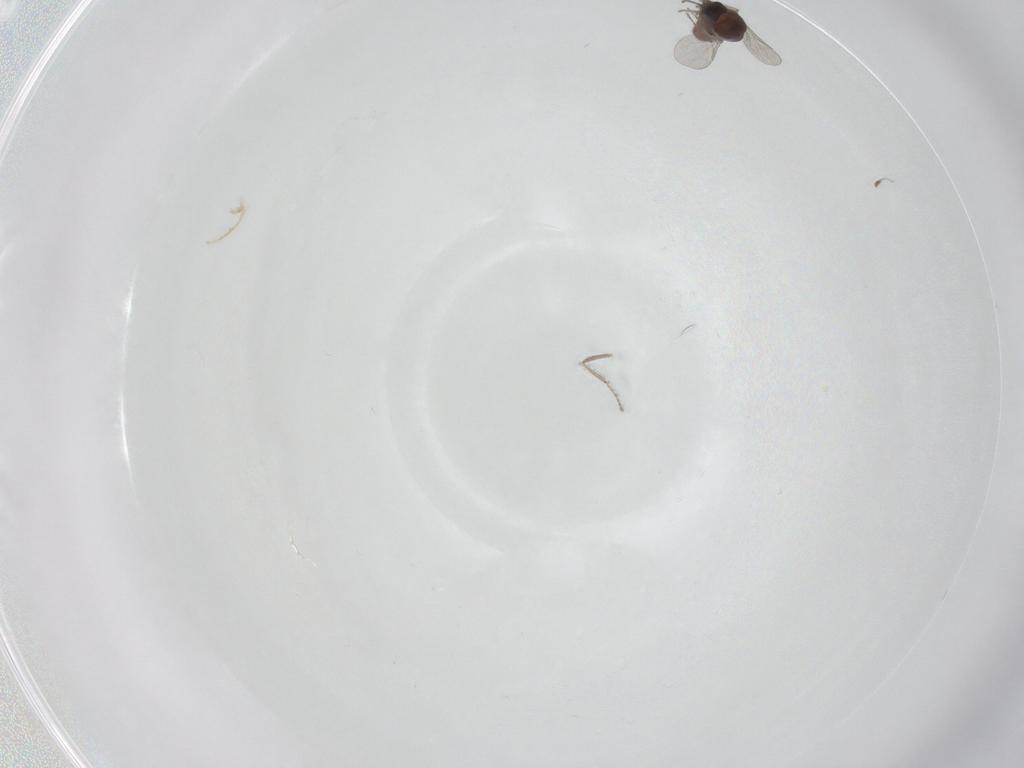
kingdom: Animalia
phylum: Arthropoda
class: Insecta
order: Diptera
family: Ceratopogonidae
